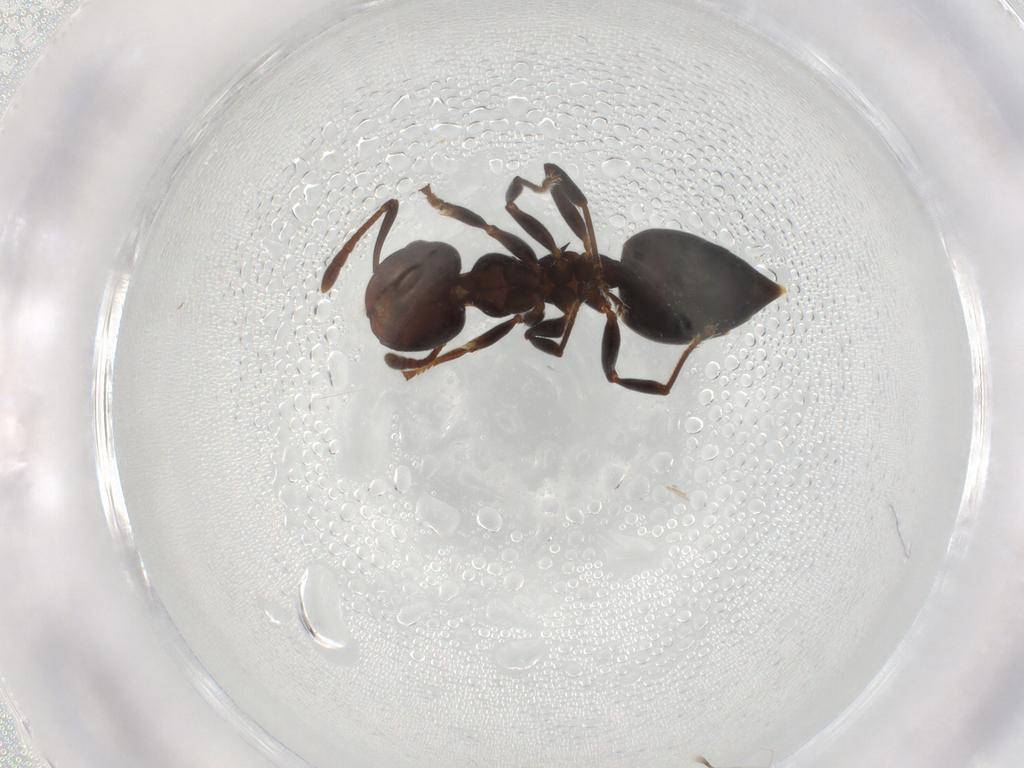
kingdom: Animalia
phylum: Arthropoda
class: Insecta
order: Hymenoptera
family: Formicidae
